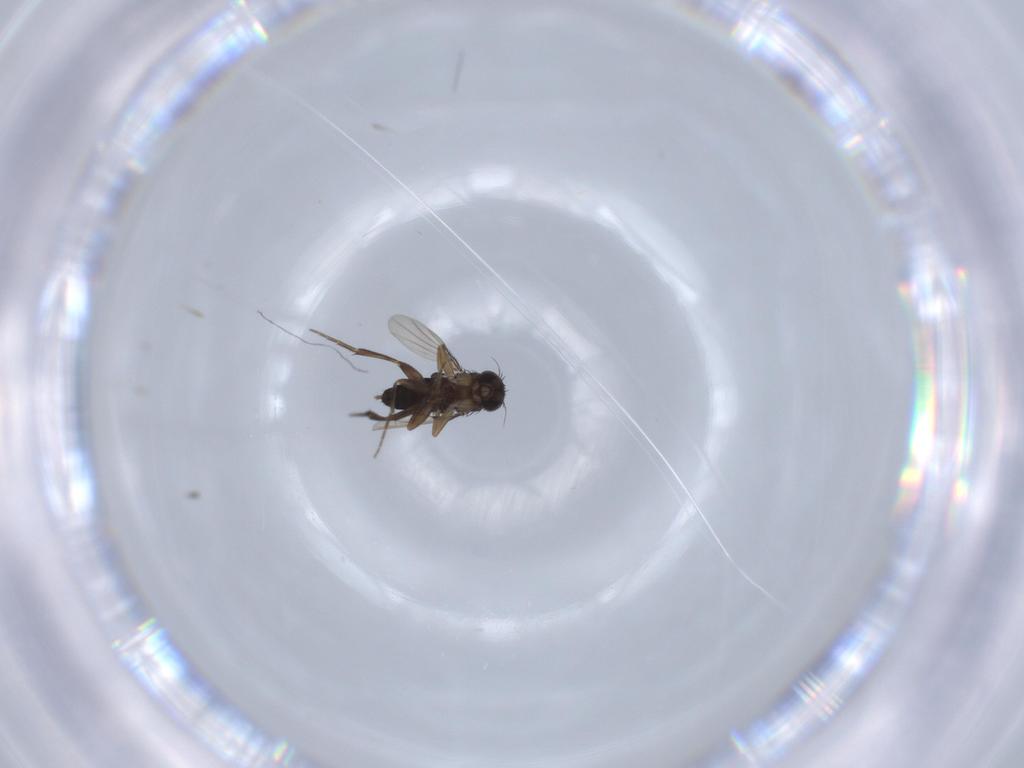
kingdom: Animalia
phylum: Arthropoda
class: Insecta
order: Diptera
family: Phoridae
